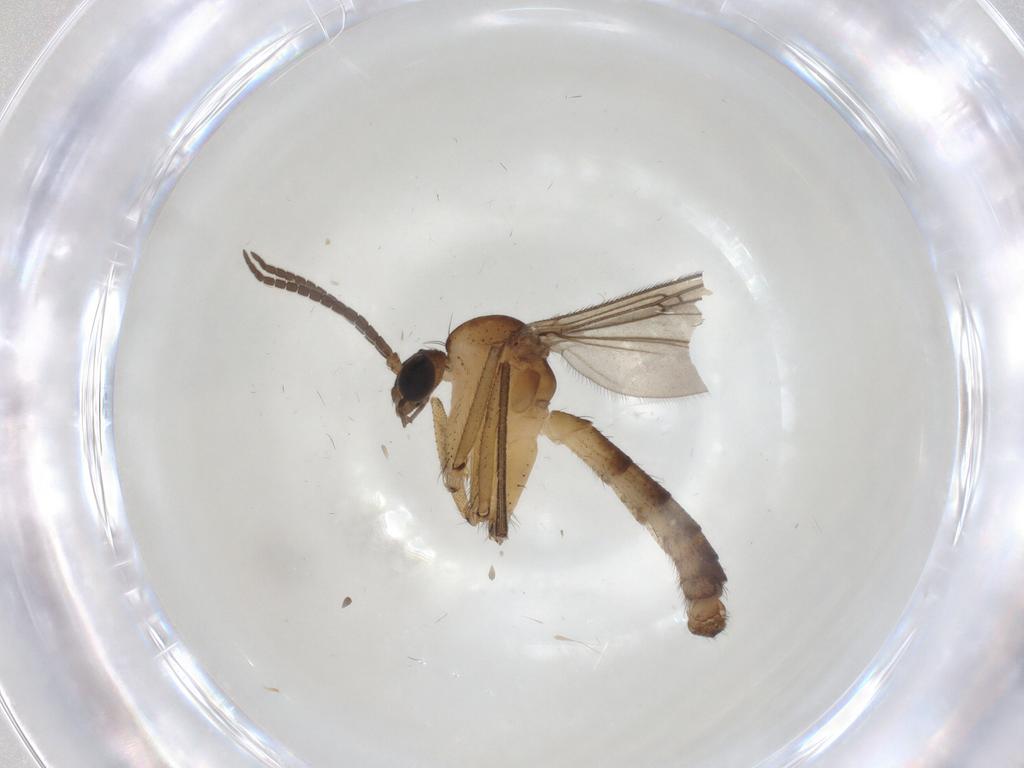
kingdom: Animalia
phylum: Arthropoda
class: Insecta
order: Diptera
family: Mycetophilidae
